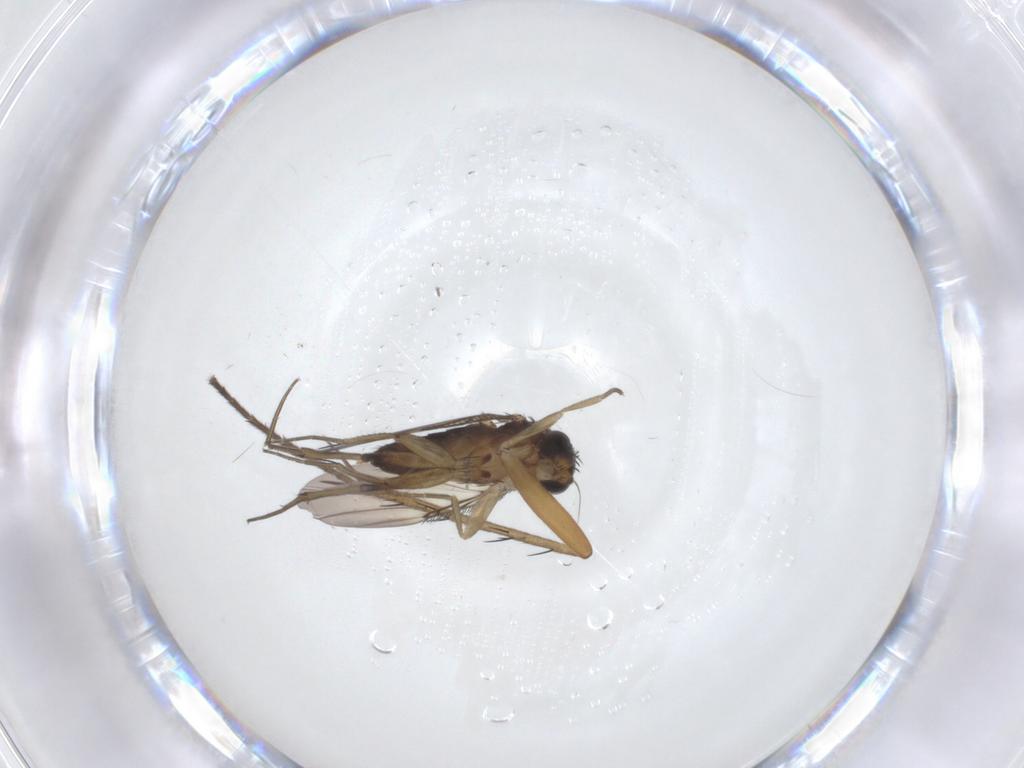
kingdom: Animalia
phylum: Arthropoda
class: Insecta
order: Diptera
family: Phoridae
